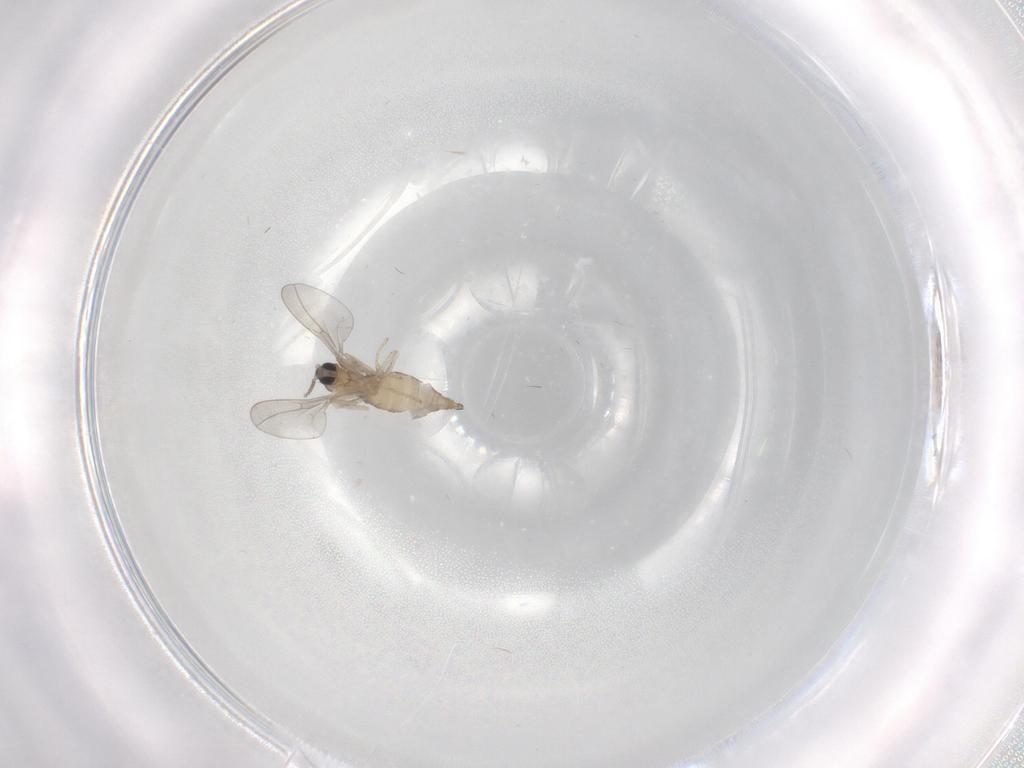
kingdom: Animalia
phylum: Arthropoda
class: Insecta
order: Diptera
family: Cecidomyiidae
